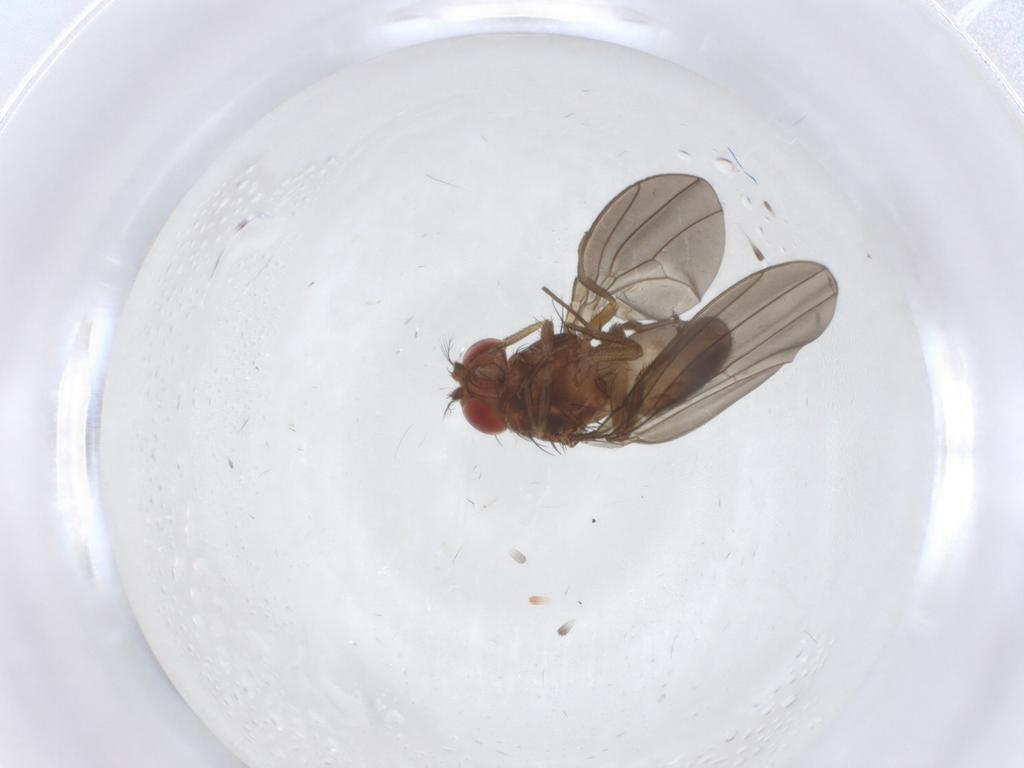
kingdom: Animalia
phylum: Arthropoda
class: Insecta
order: Diptera
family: Drosophilidae
